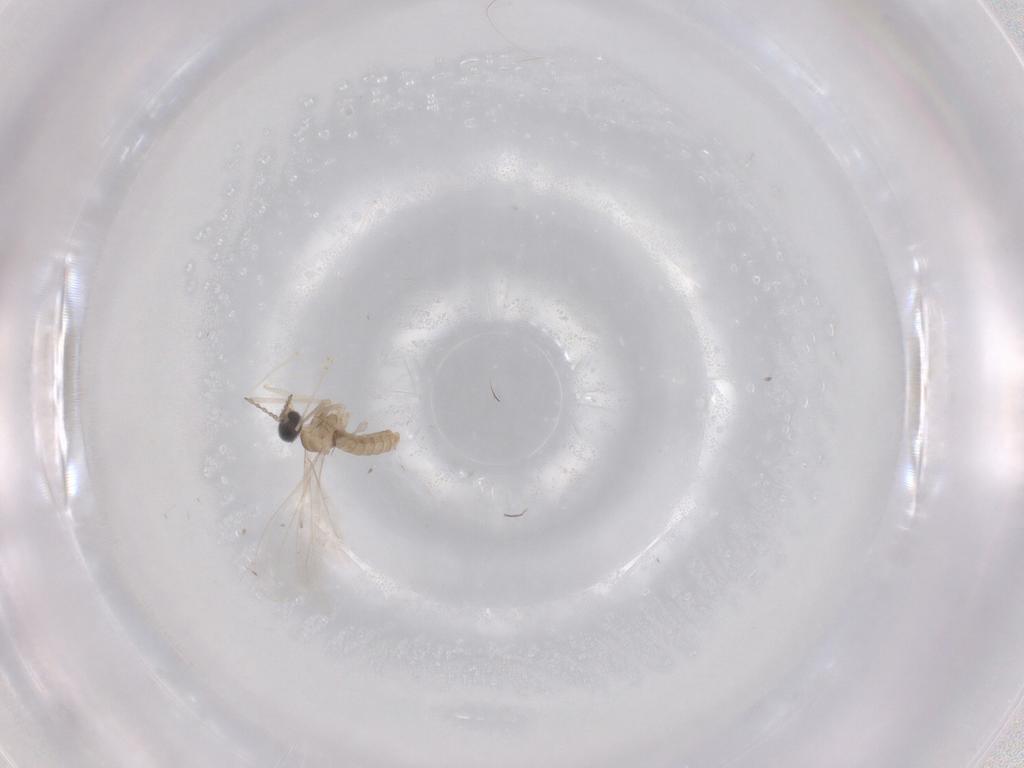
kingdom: Animalia
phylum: Arthropoda
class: Insecta
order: Diptera
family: Cecidomyiidae
